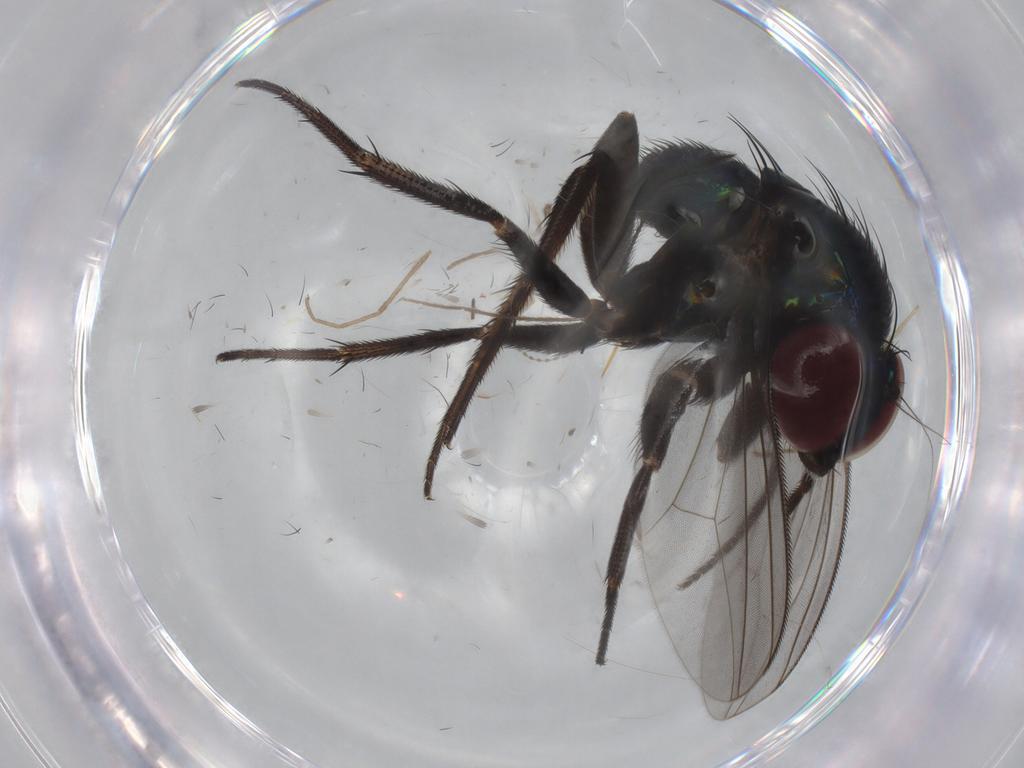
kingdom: Animalia
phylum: Arthropoda
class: Insecta
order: Diptera
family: Dolichopodidae
